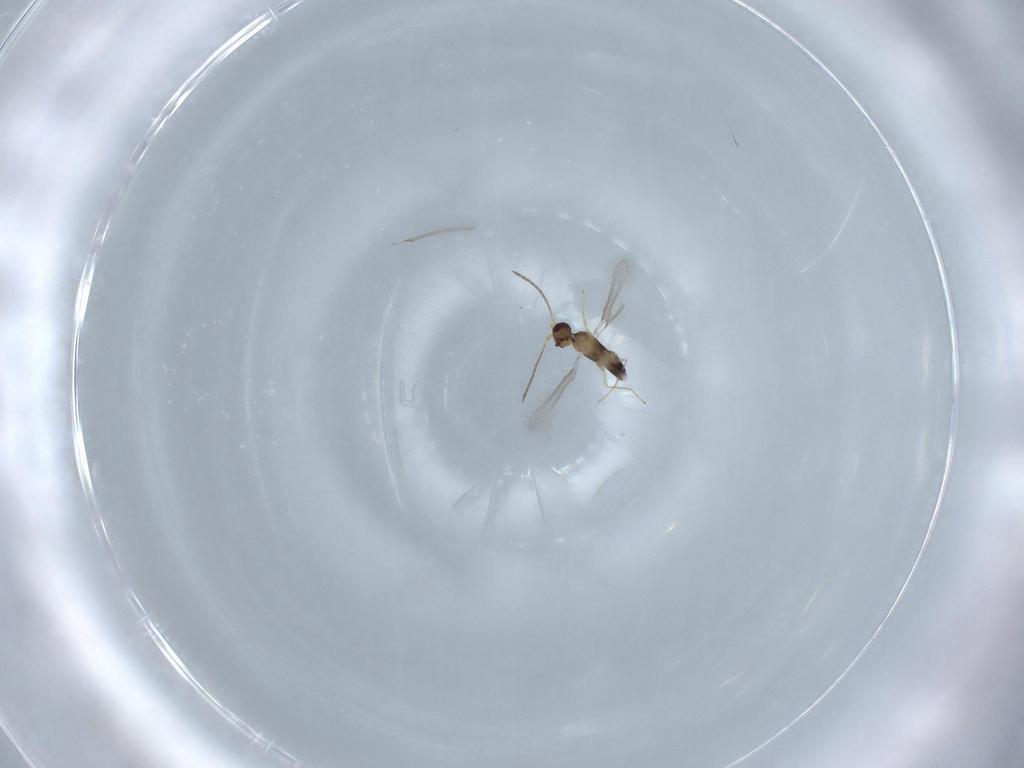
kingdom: Animalia
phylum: Arthropoda
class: Insecta
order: Hymenoptera
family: Mymaridae
